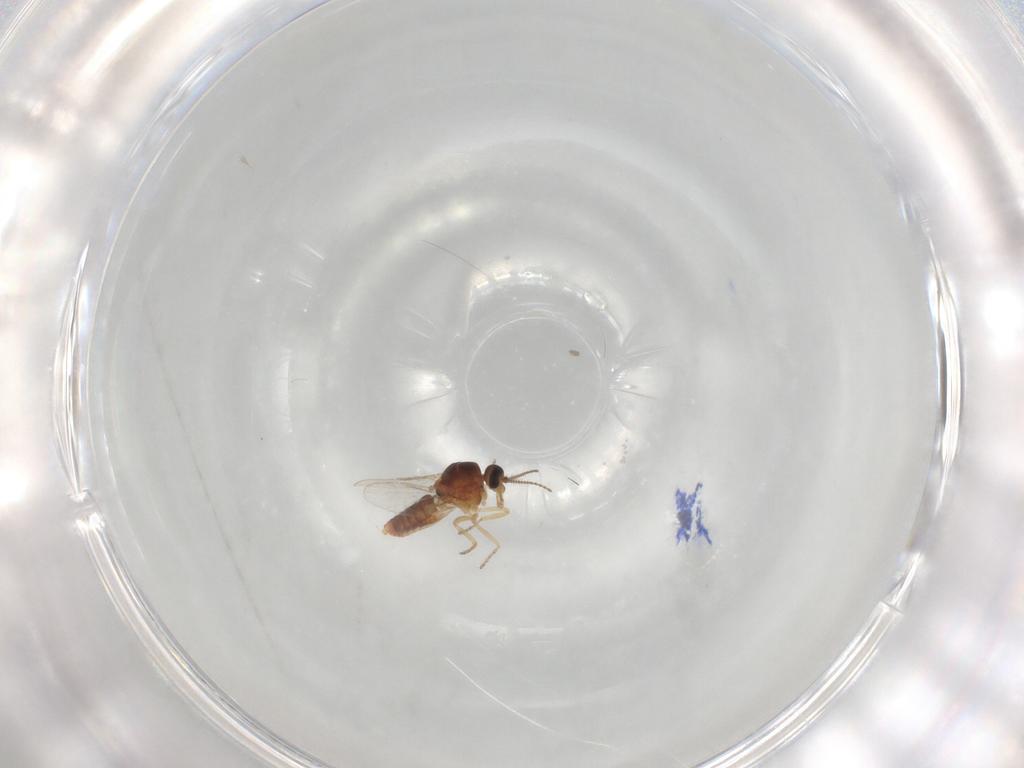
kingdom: Animalia
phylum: Arthropoda
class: Insecta
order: Diptera
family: Ceratopogonidae
